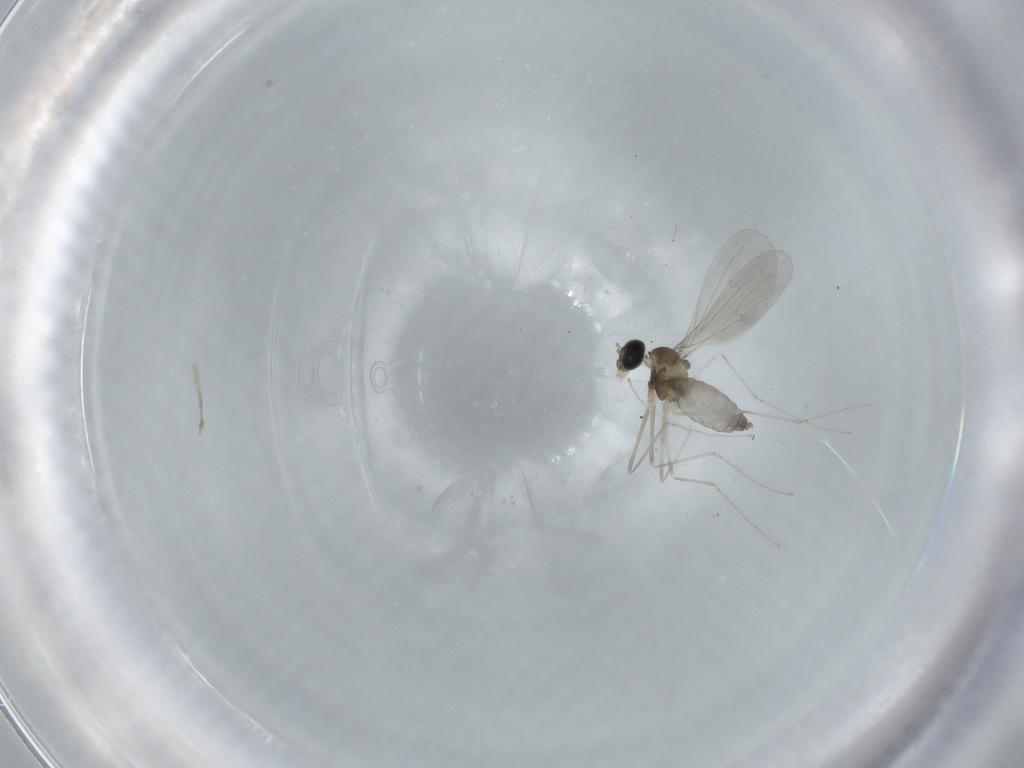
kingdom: Animalia
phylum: Arthropoda
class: Insecta
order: Diptera
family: Cecidomyiidae
